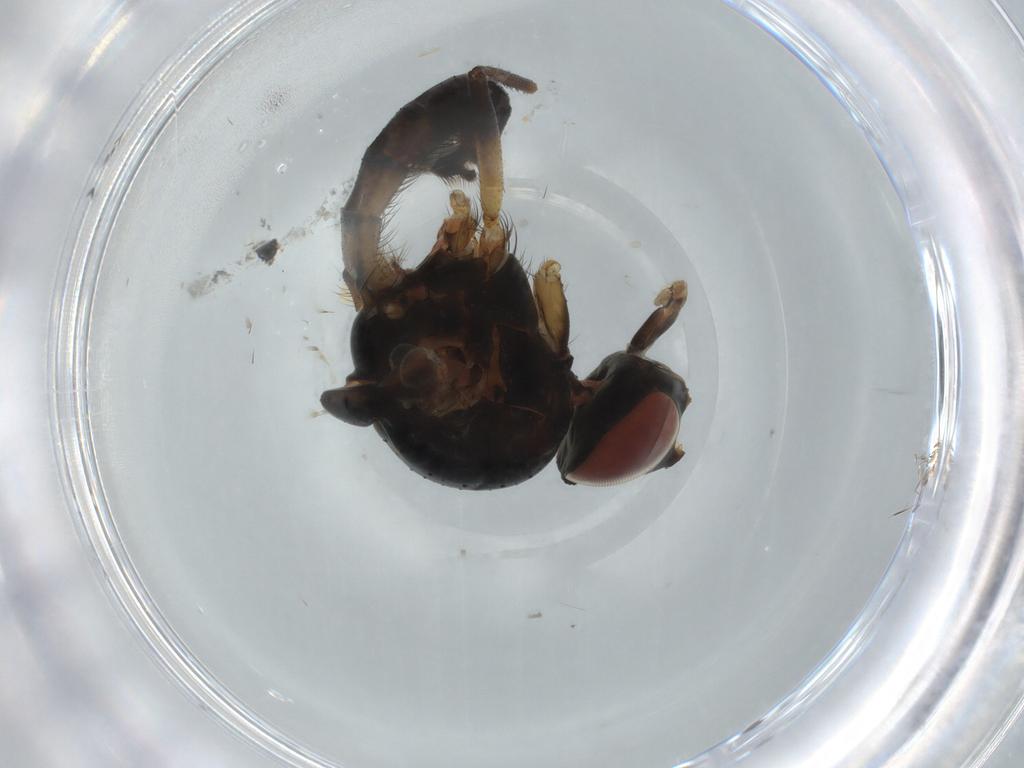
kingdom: Animalia
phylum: Arthropoda
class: Insecta
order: Diptera
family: Anthomyiidae
